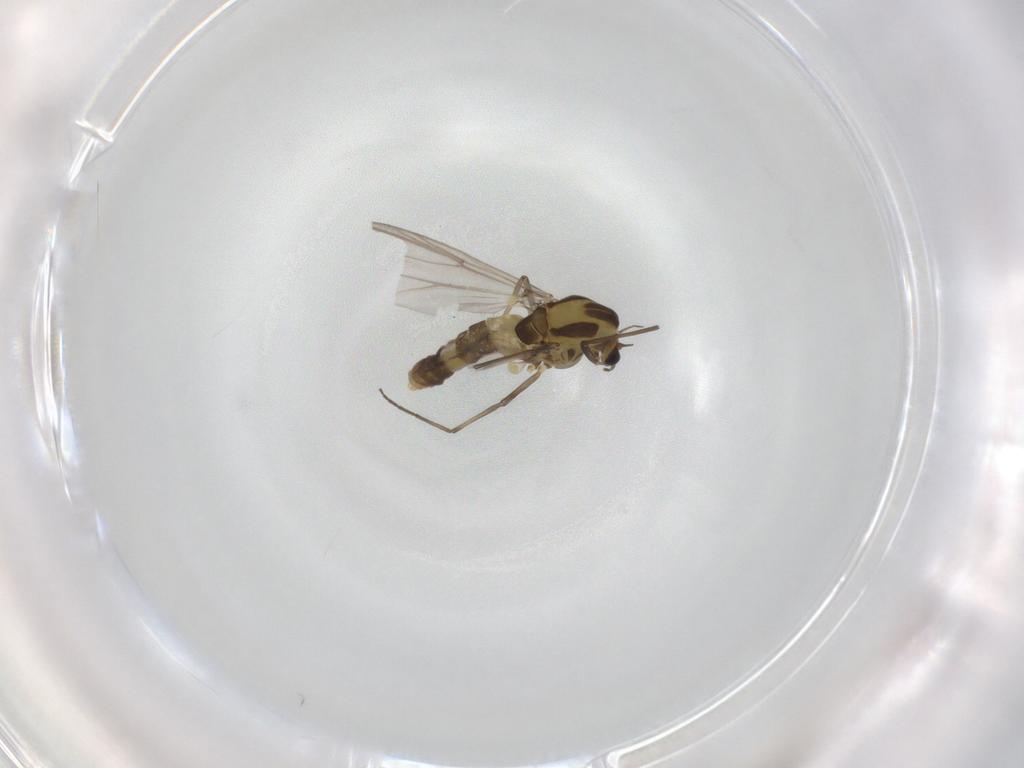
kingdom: Animalia
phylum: Arthropoda
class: Insecta
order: Diptera
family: Chironomidae
